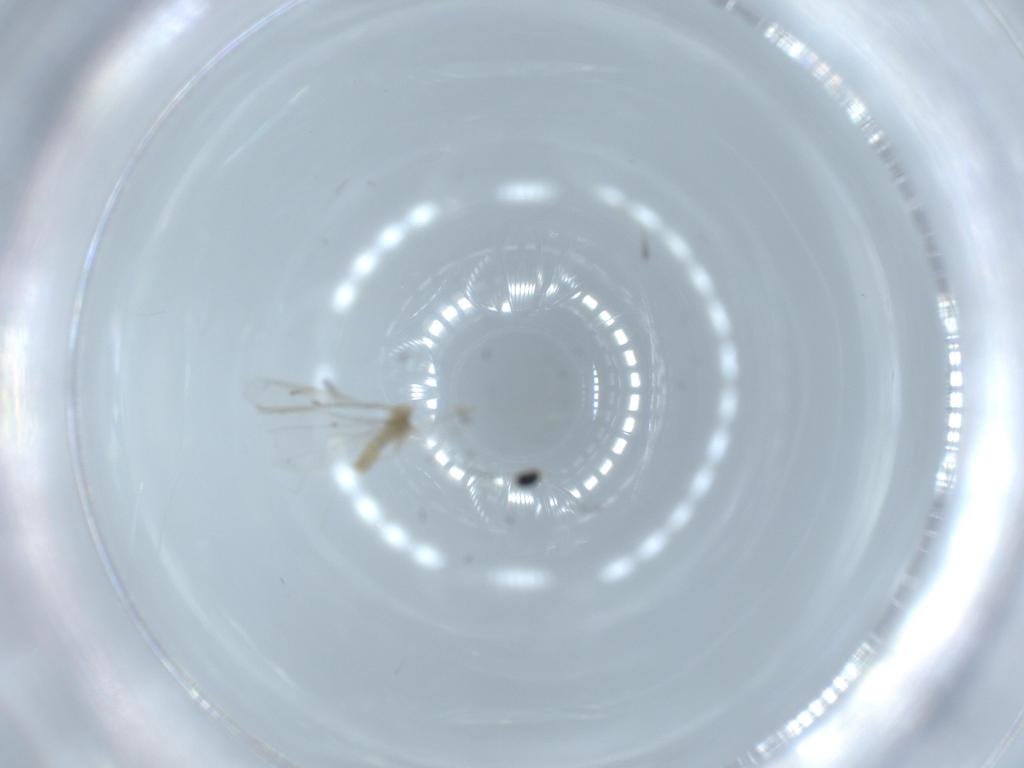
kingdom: Animalia
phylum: Arthropoda
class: Insecta
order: Diptera
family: Cecidomyiidae
